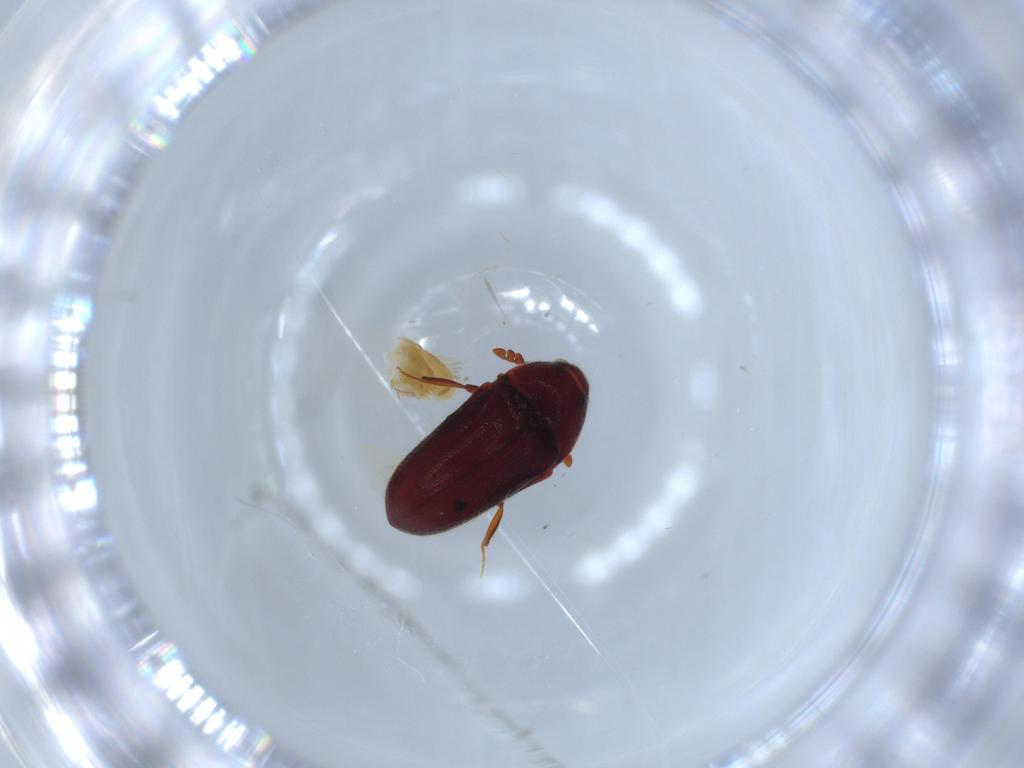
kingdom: Animalia
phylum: Arthropoda
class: Insecta
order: Coleoptera
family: Throscidae
